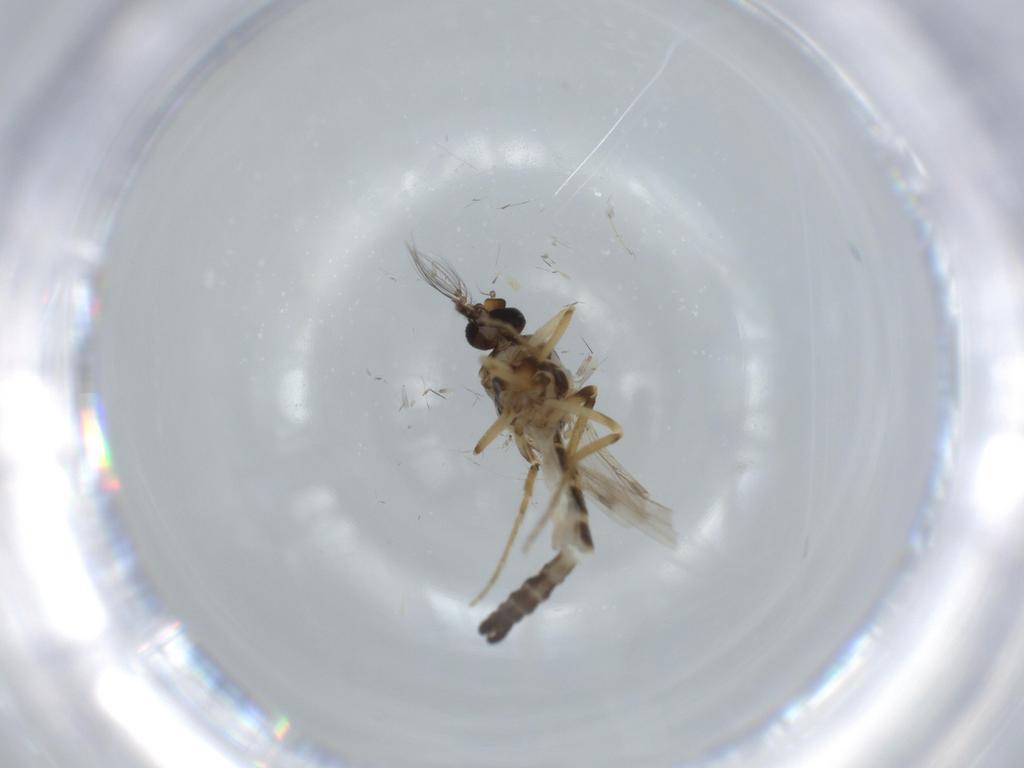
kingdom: Animalia
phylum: Arthropoda
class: Insecta
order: Diptera
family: Ceratopogonidae
